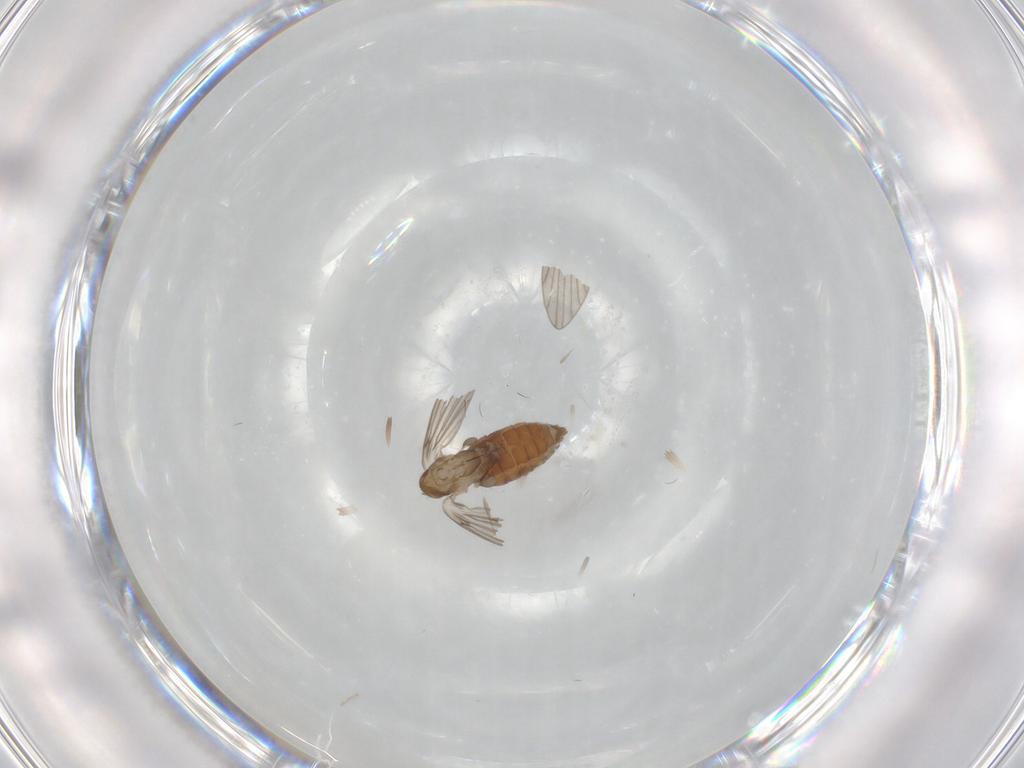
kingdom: Animalia
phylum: Arthropoda
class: Insecta
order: Diptera
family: Psychodidae
